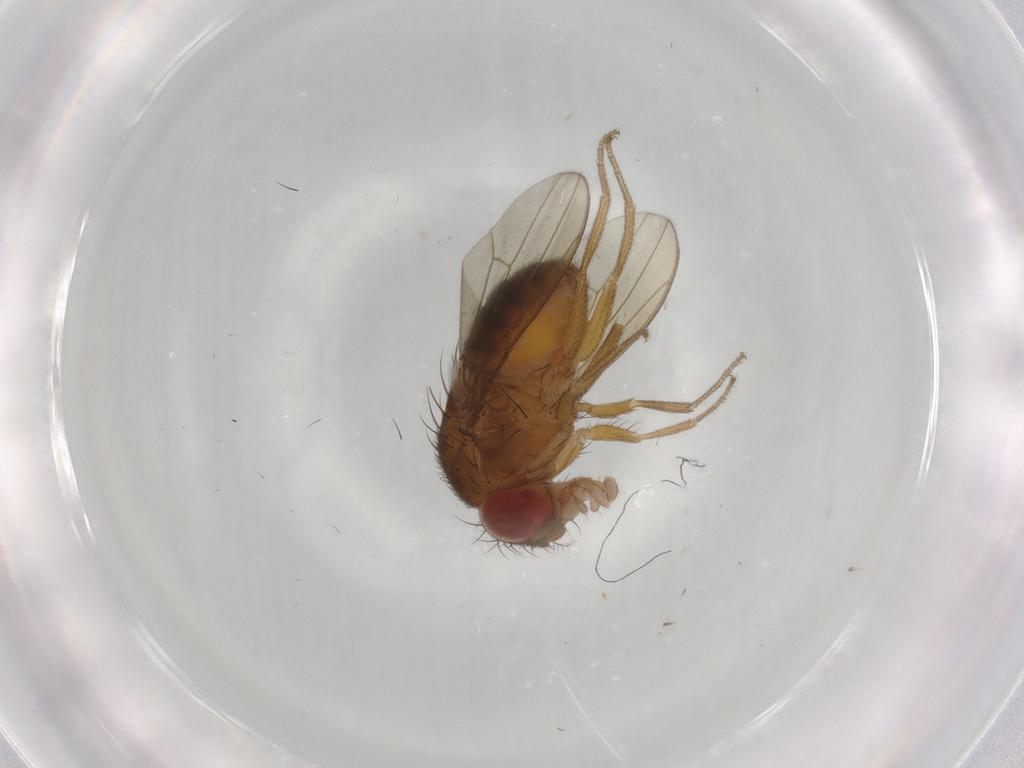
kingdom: Animalia
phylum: Arthropoda
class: Insecta
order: Diptera
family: Drosophilidae
